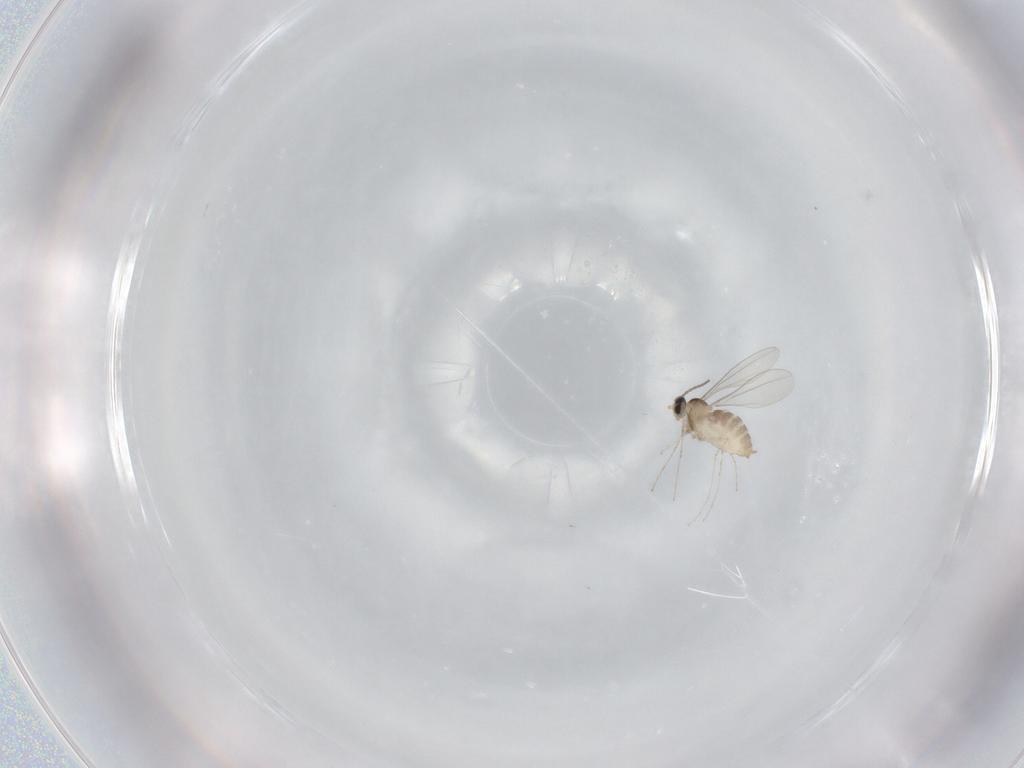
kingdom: Animalia
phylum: Arthropoda
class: Insecta
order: Diptera
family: Cecidomyiidae
